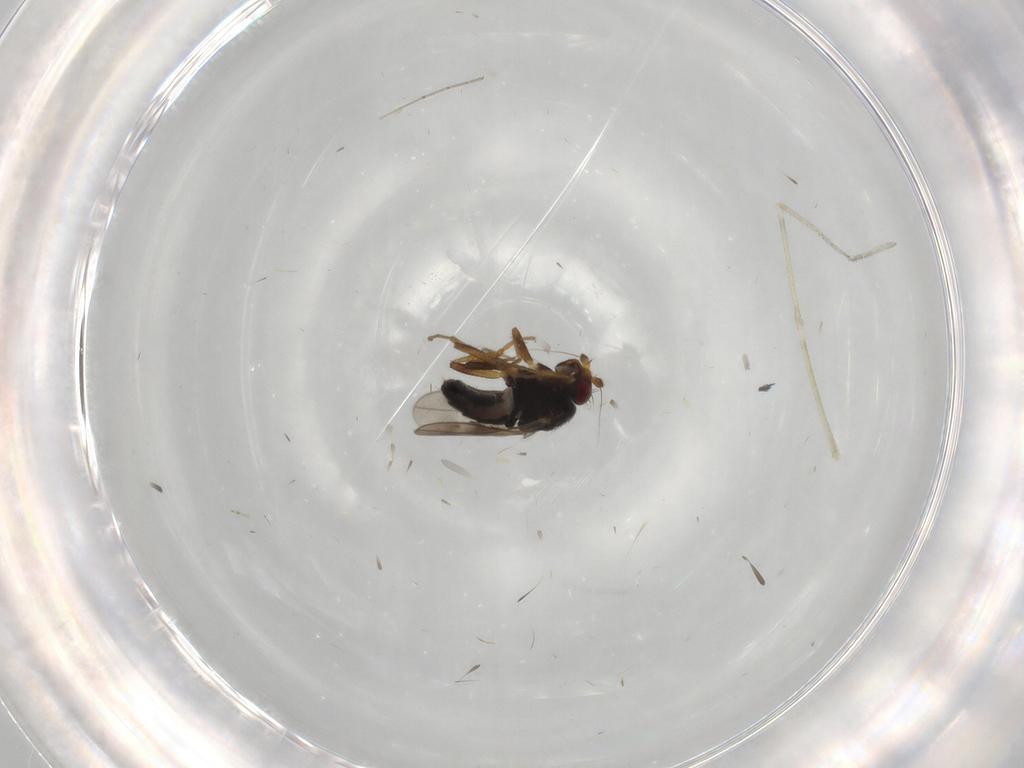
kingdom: Animalia
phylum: Arthropoda
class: Insecta
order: Diptera
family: Sphaeroceridae
